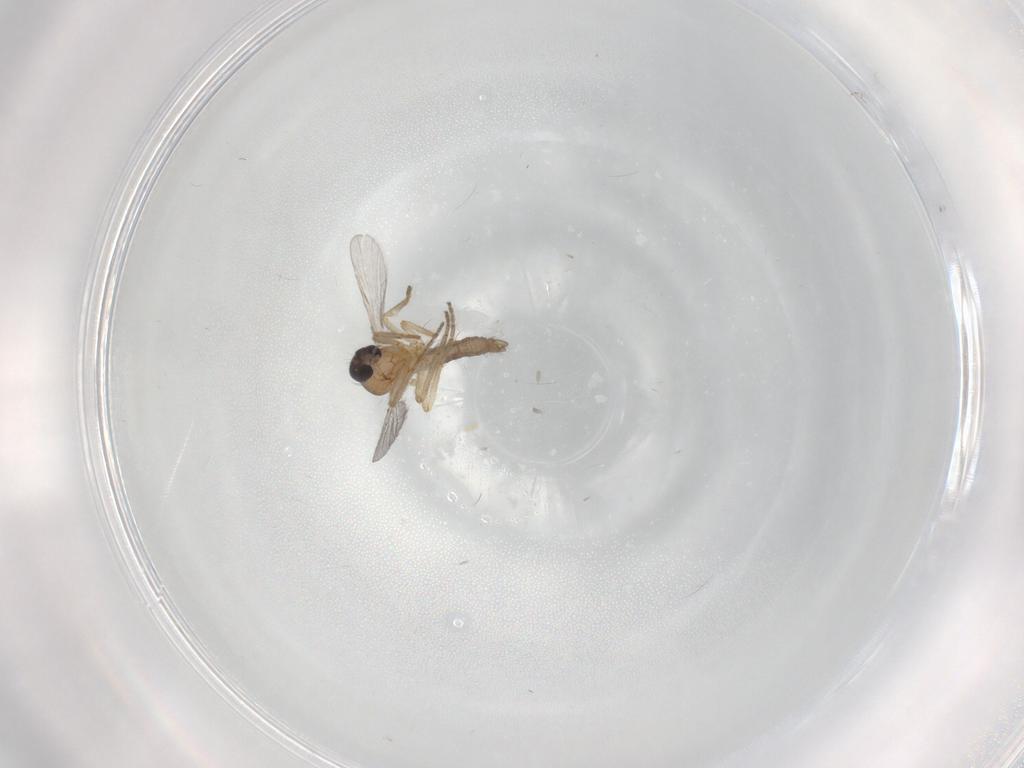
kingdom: Animalia
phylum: Arthropoda
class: Insecta
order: Diptera
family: Ceratopogonidae
